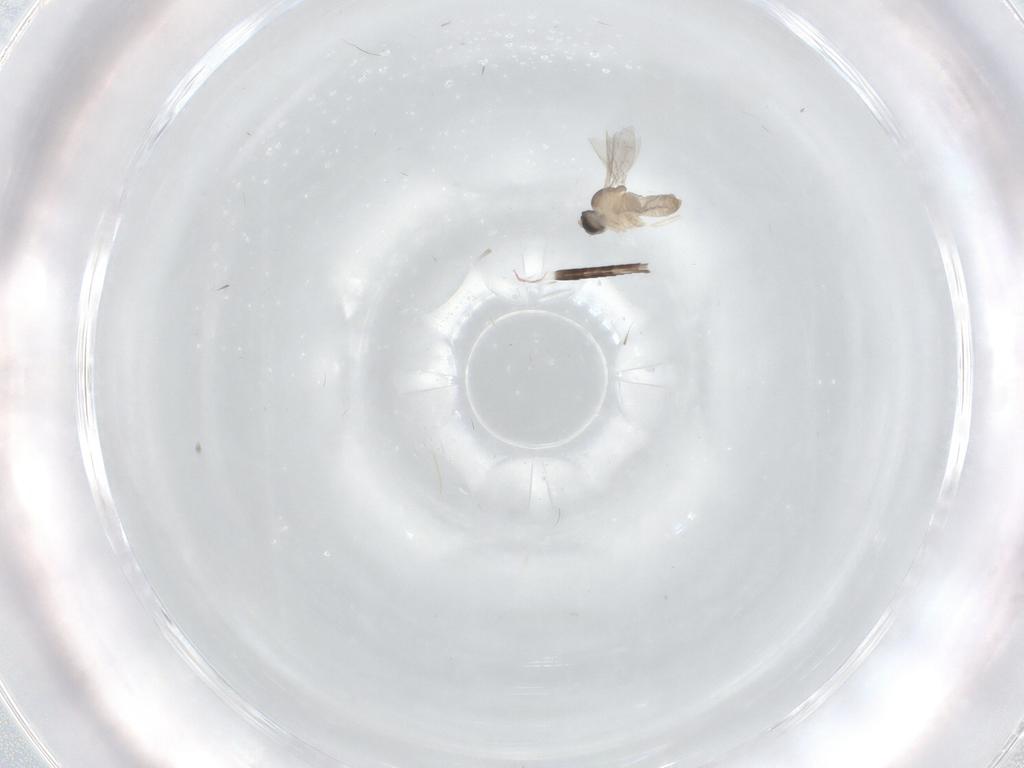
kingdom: Animalia
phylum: Arthropoda
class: Insecta
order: Diptera
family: Cecidomyiidae
